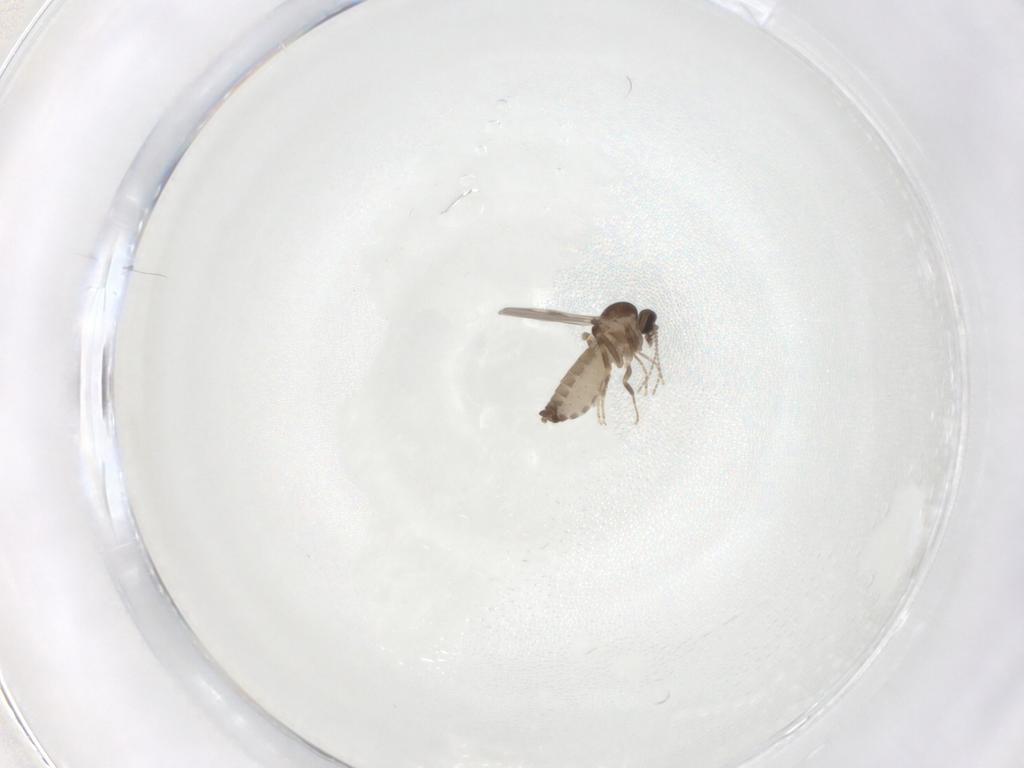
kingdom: Animalia
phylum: Arthropoda
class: Insecta
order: Diptera
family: Ceratopogonidae
